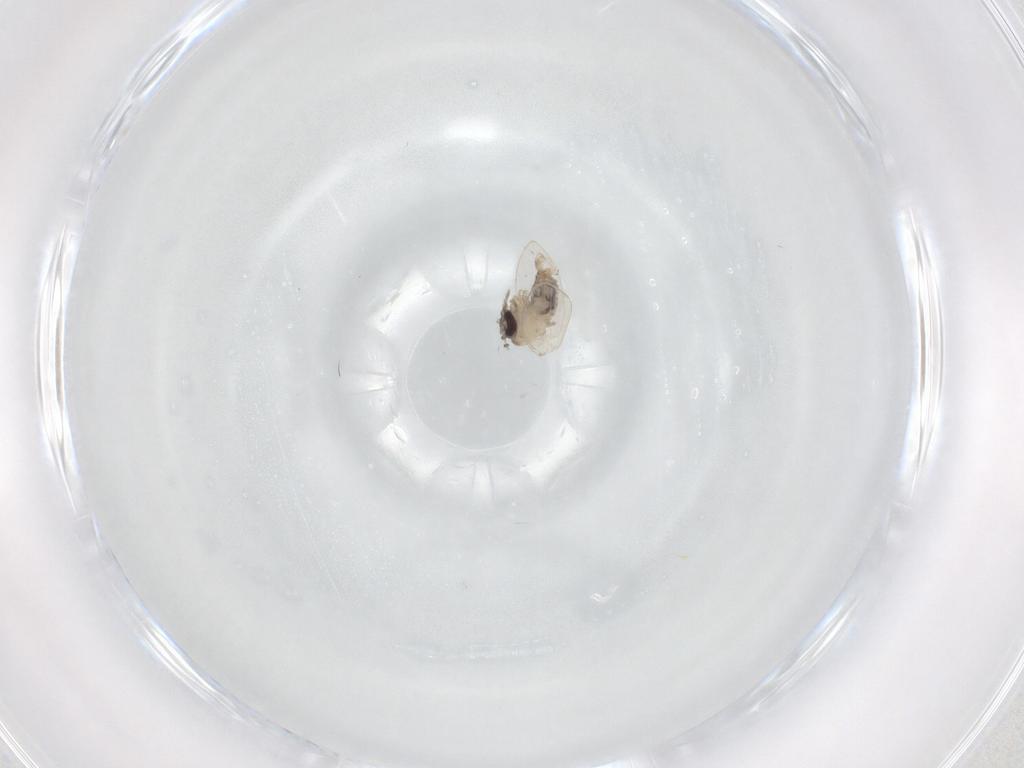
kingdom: Animalia
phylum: Arthropoda
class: Insecta
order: Diptera
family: Psychodidae
